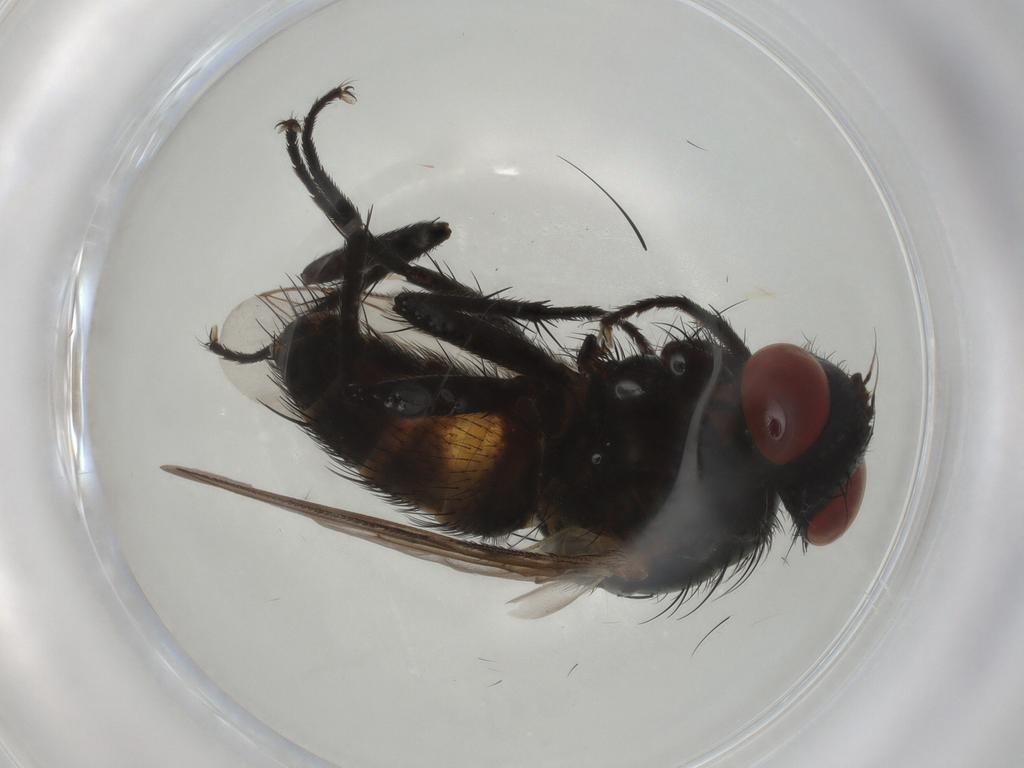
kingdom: Animalia
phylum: Arthropoda
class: Insecta
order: Diptera
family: Sarcophagidae
